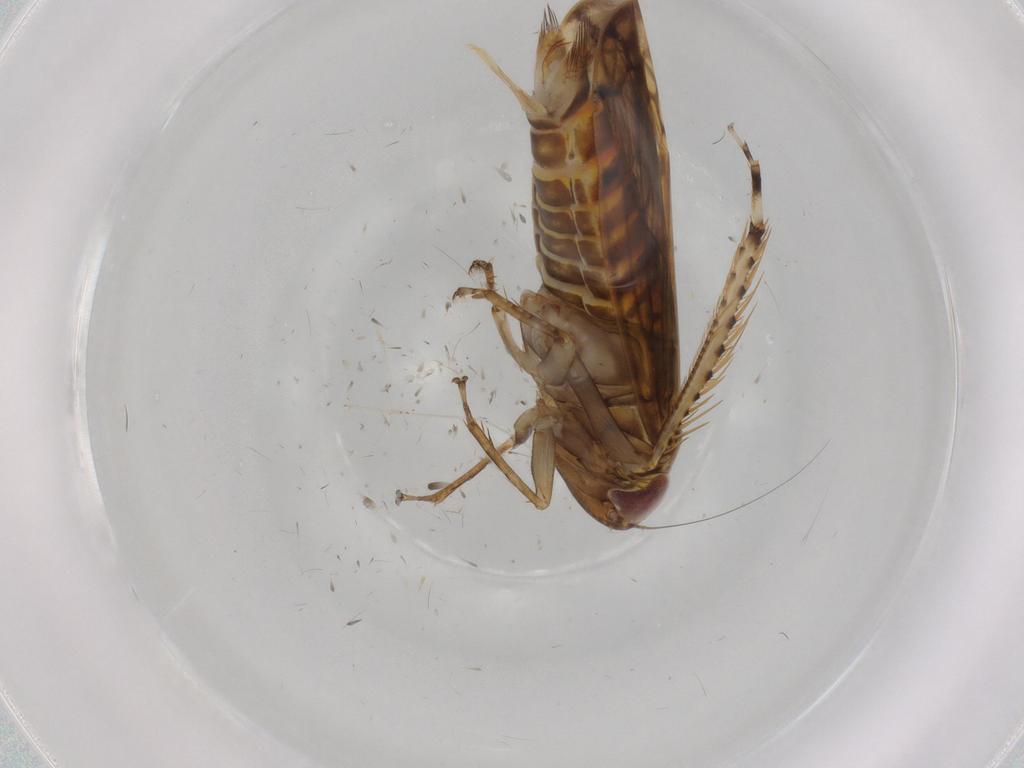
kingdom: Animalia
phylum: Arthropoda
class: Insecta
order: Hemiptera
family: Cicadellidae
